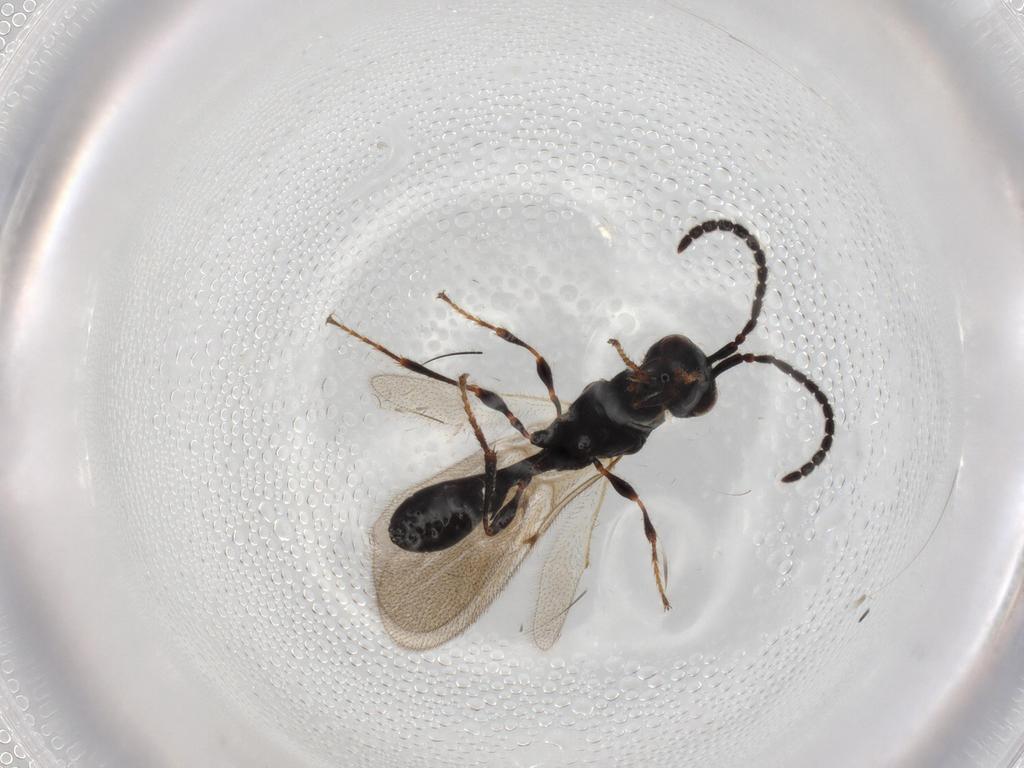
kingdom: Animalia
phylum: Arthropoda
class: Insecta
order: Hymenoptera
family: Diapriidae
